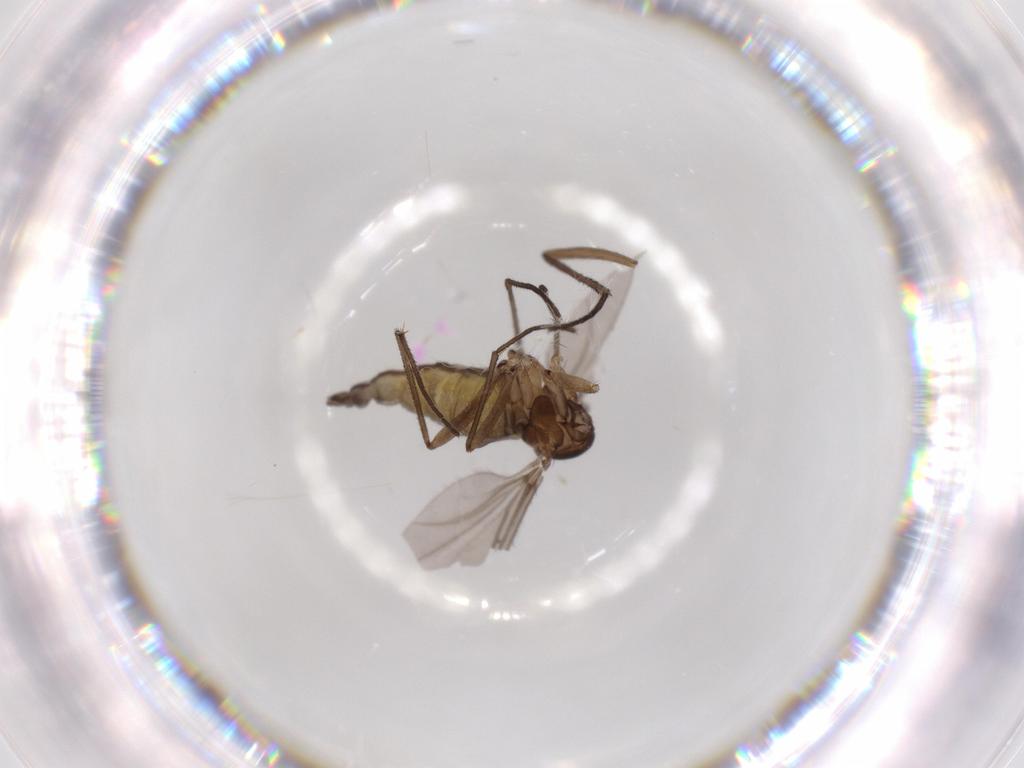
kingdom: Animalia
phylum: Arthropoda
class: Insecta
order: Diptera
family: Sciaridae
